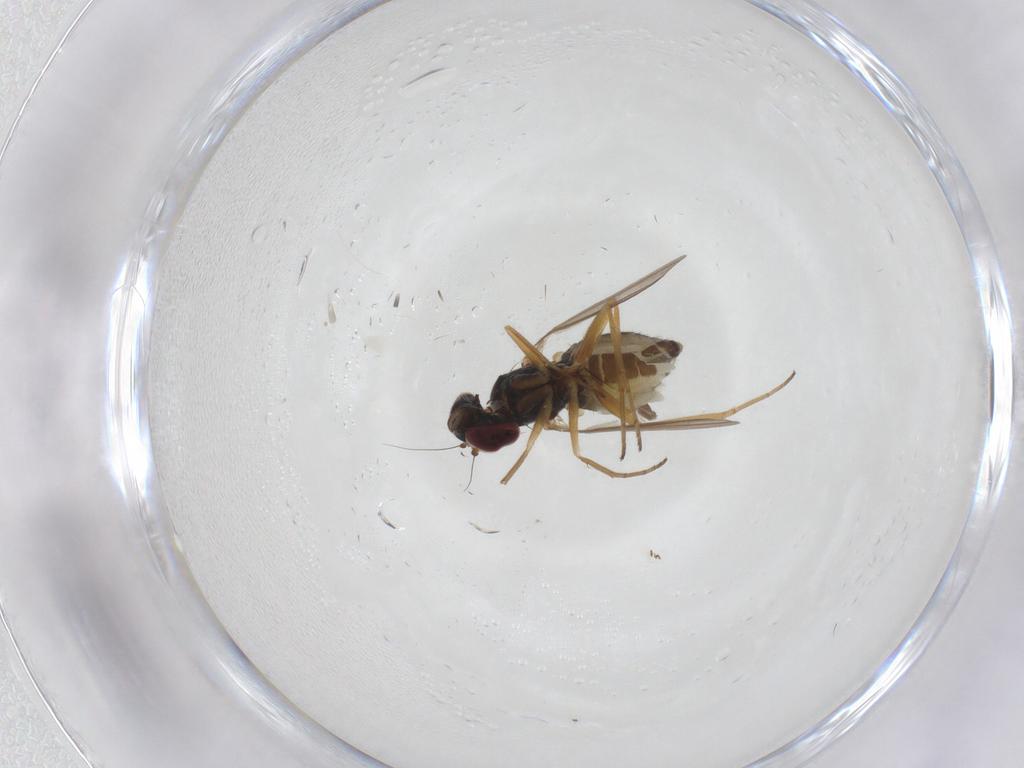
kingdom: Animalia
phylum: Arthropoda
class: Insecta
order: Diptera
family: Dolichopodidae
